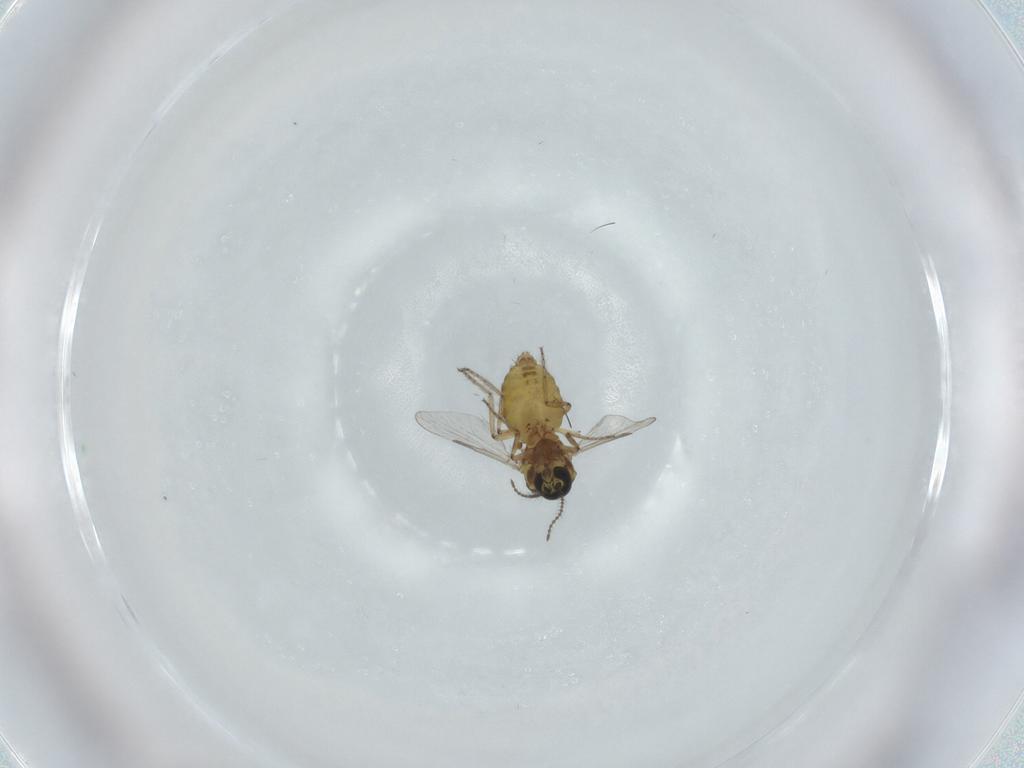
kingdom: Animalia
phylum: Arthropoda
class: Insecta
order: Diptera
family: Ceratopogonidae
